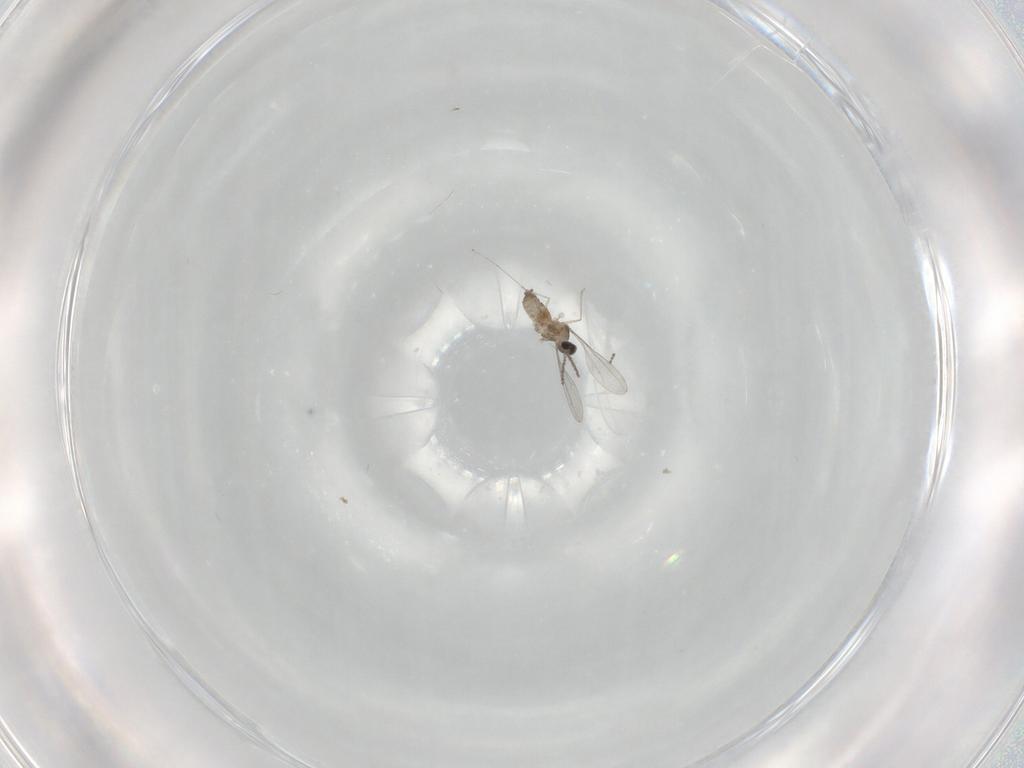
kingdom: Animalia
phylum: Arthropoda
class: Insecta
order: Diptera
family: Cecidomyiidae
